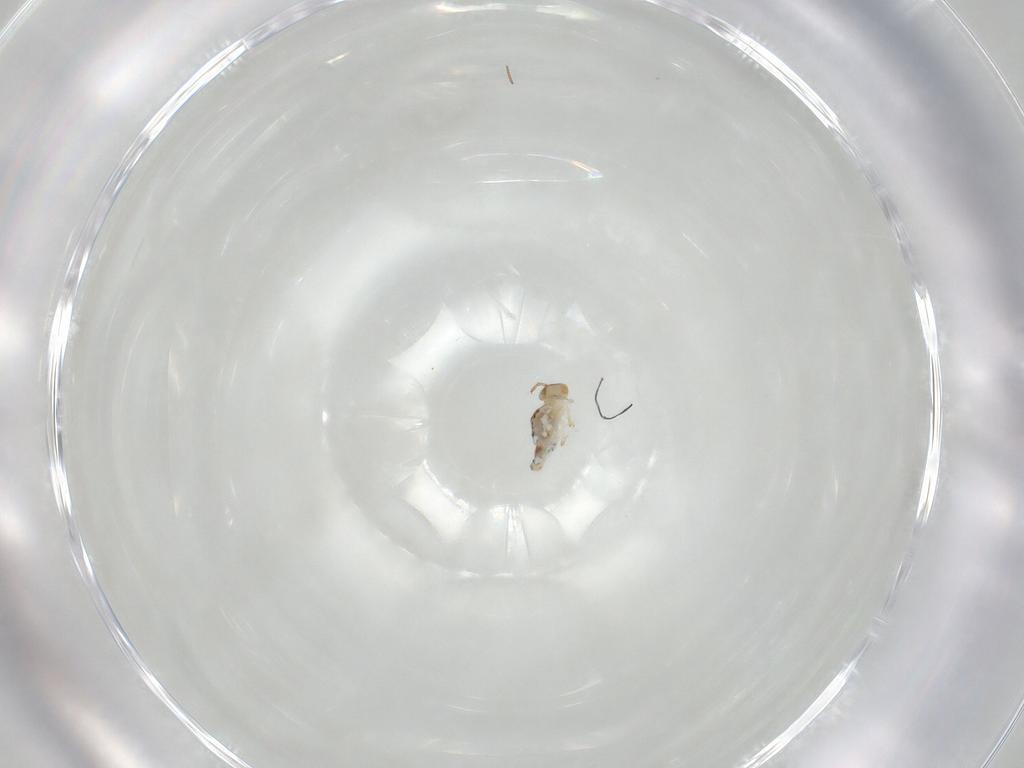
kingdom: Animalia
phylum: Arthropoda
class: Collembola
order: Symphypleona
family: Bourletiellidae
